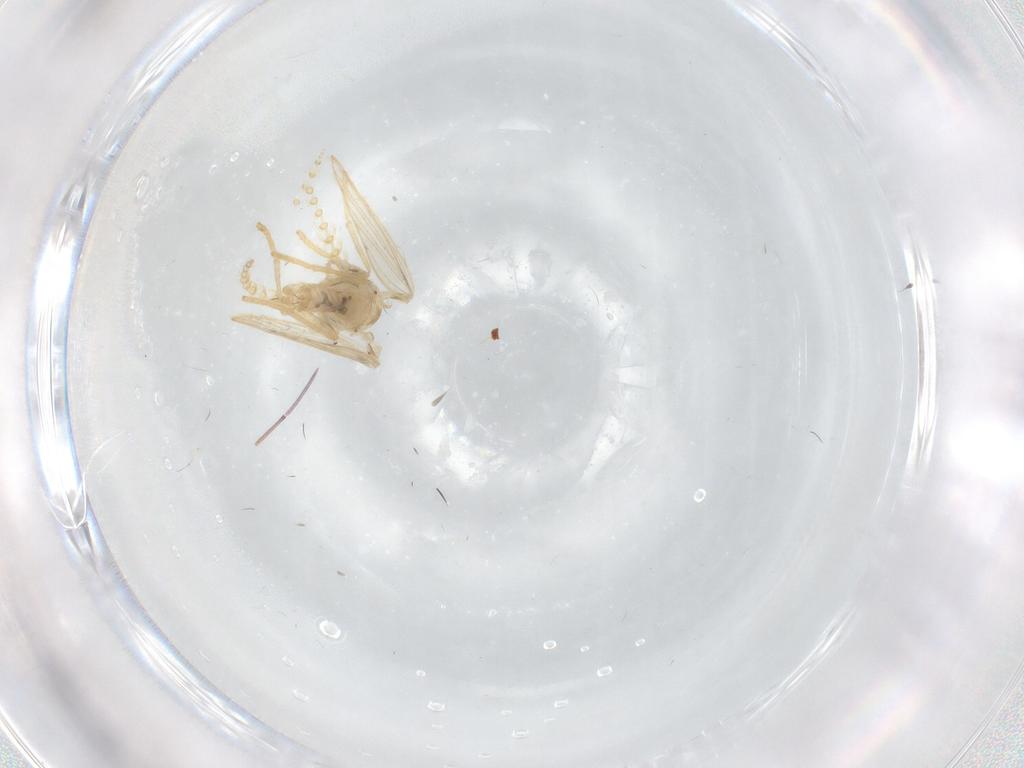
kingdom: Animalia
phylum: Arthropoda
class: Insecta
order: Diptera
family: Psychodidae
